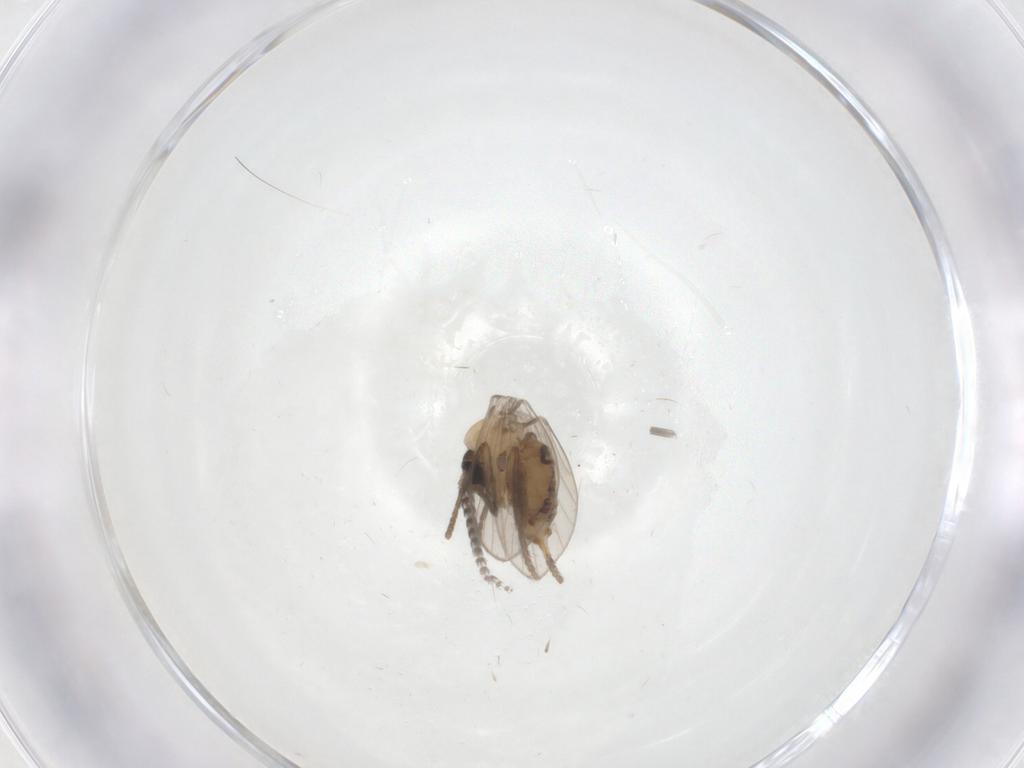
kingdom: Animalia
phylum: Arthropoda
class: Insecta
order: Diptera
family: Psychodidae
